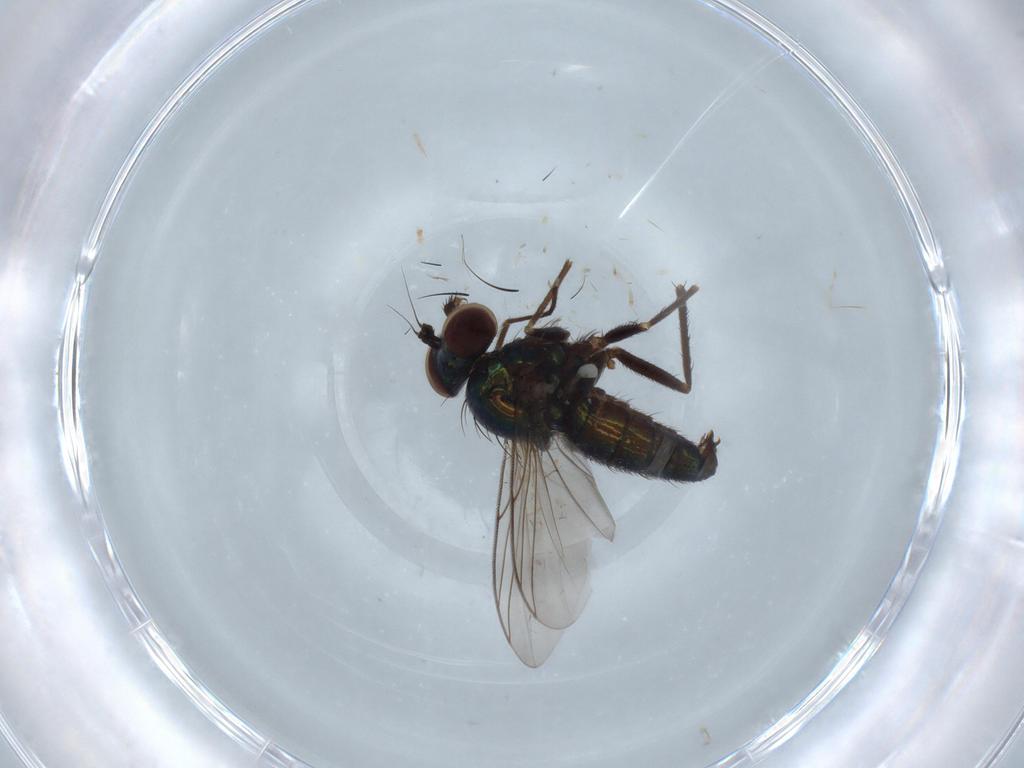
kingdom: Animalia
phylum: Arthropoda
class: Insecta
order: Diptera
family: Dolichopodidae
